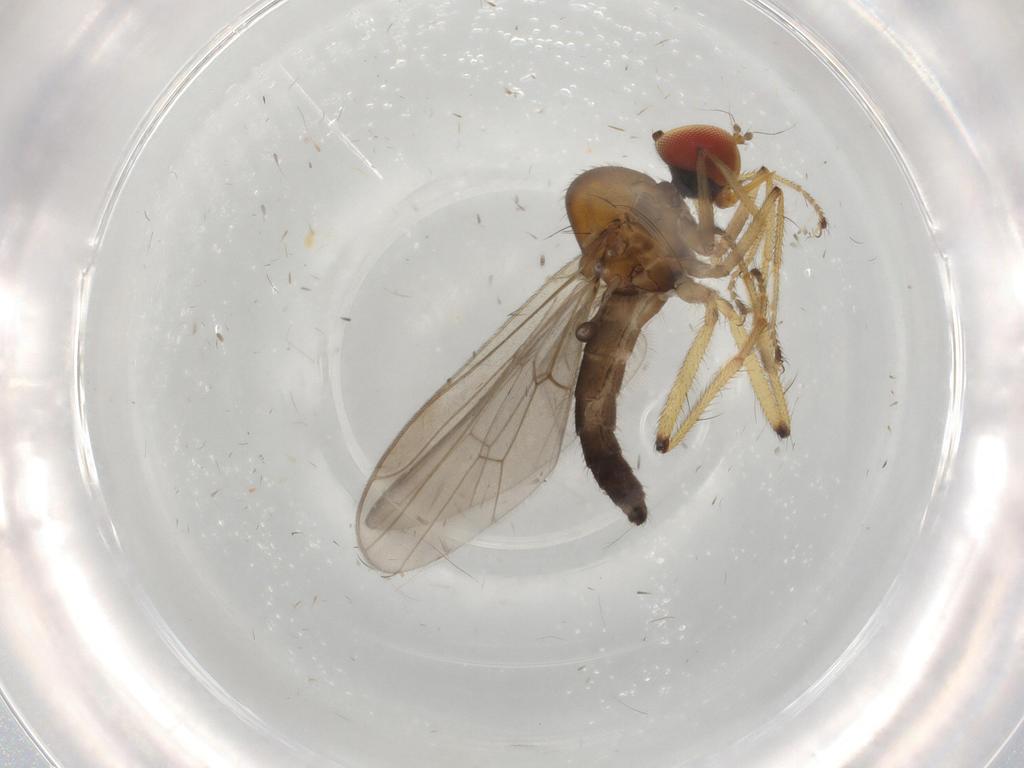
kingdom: Animalia
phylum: Arthropoda
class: Insecta
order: Diptera
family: Hybotidae
